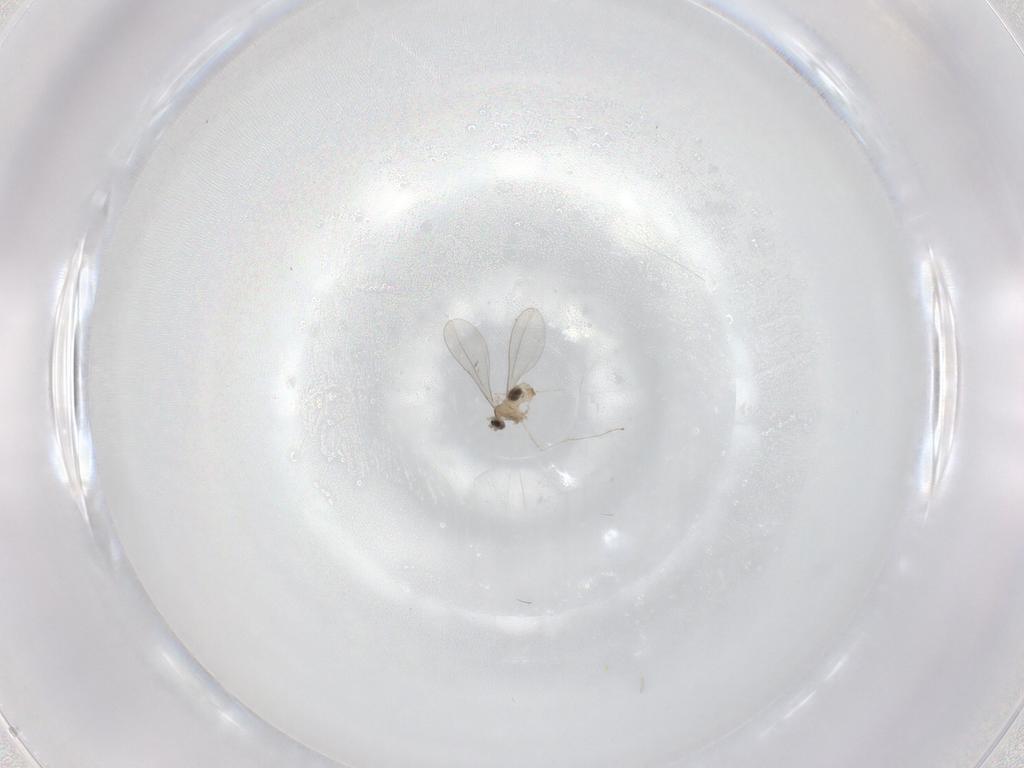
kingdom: Animalia
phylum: Arthropoda
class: Insecta
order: Diptera
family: Cecidomyiidae
